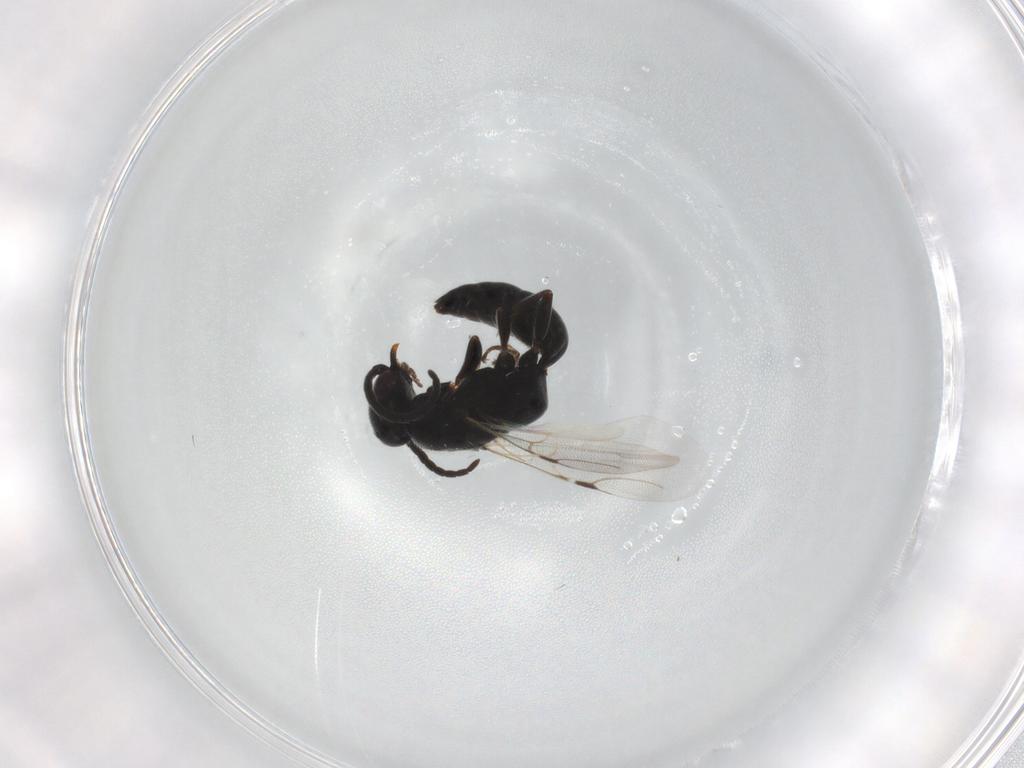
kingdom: Animalia
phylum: Arthropoda
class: Insecta
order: Hymenoptera
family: Bethylidae
